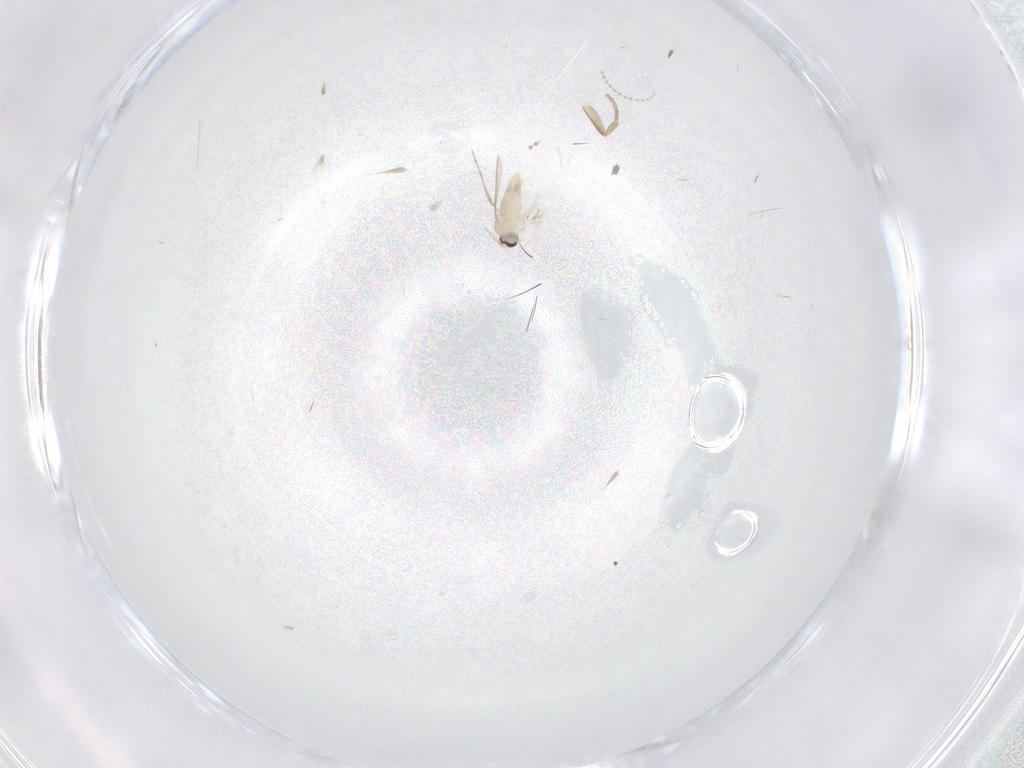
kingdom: Animalia
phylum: Arthropoda
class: Insecta
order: Diptera
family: Cecidomyiidae
